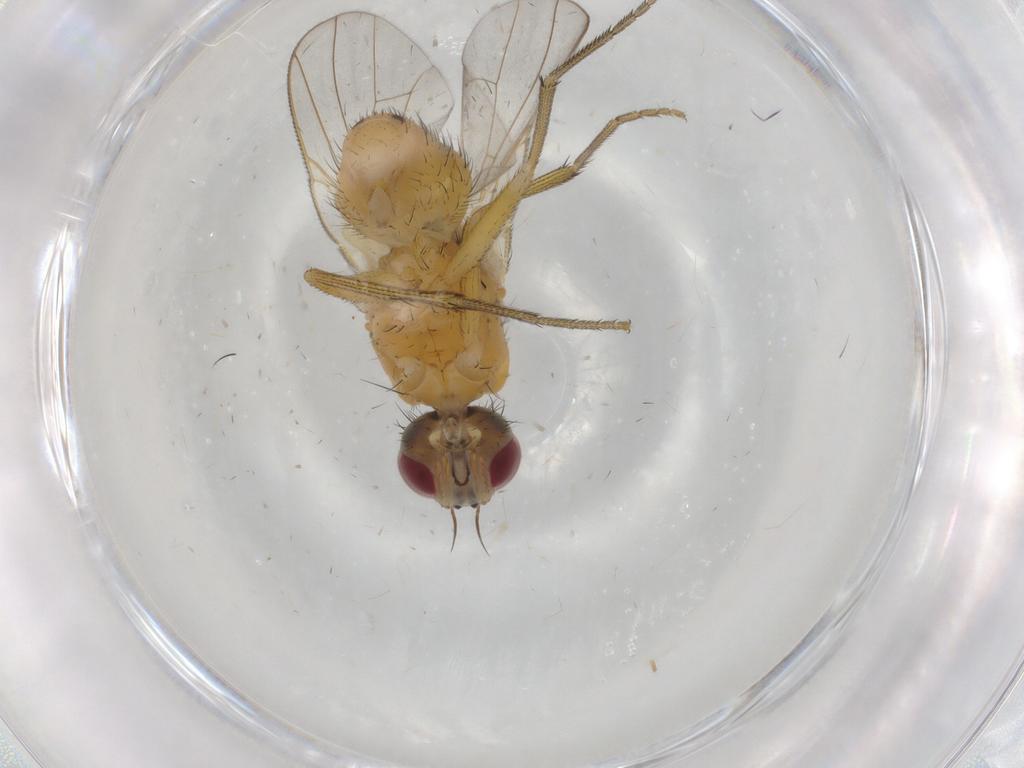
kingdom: Animalia
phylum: Arthropoda
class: Insecta
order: Diptera
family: Muscidae
